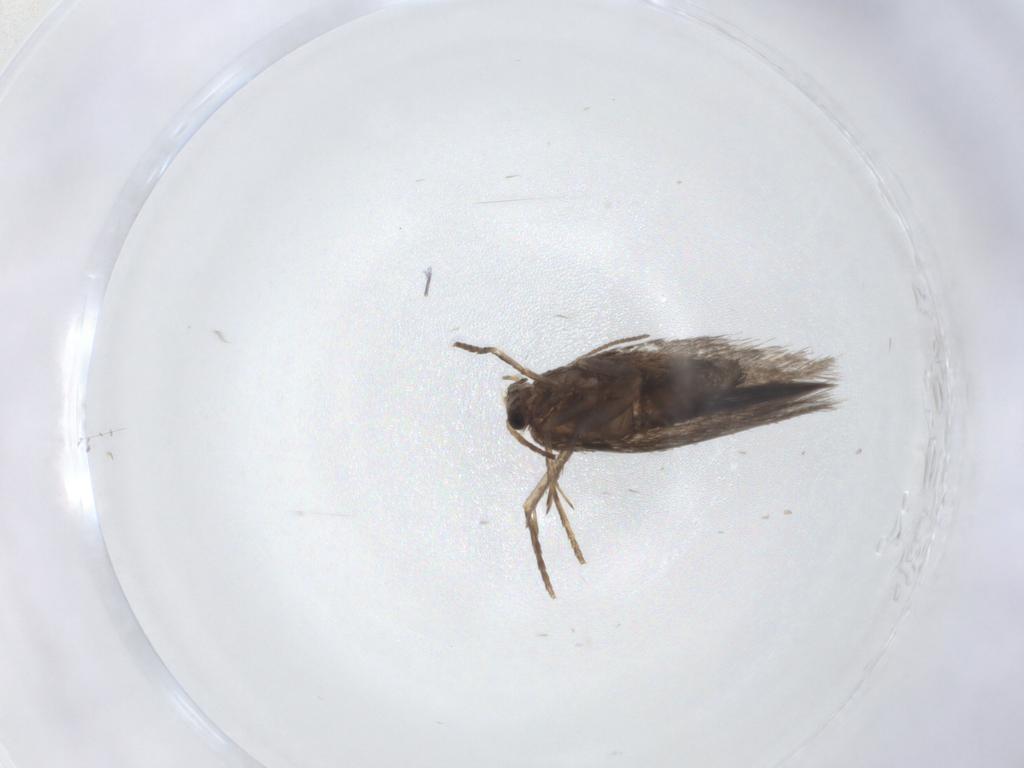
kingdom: Animalia
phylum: Arthropoda
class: Insecta
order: Lepidoptera
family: Nepticulidae
